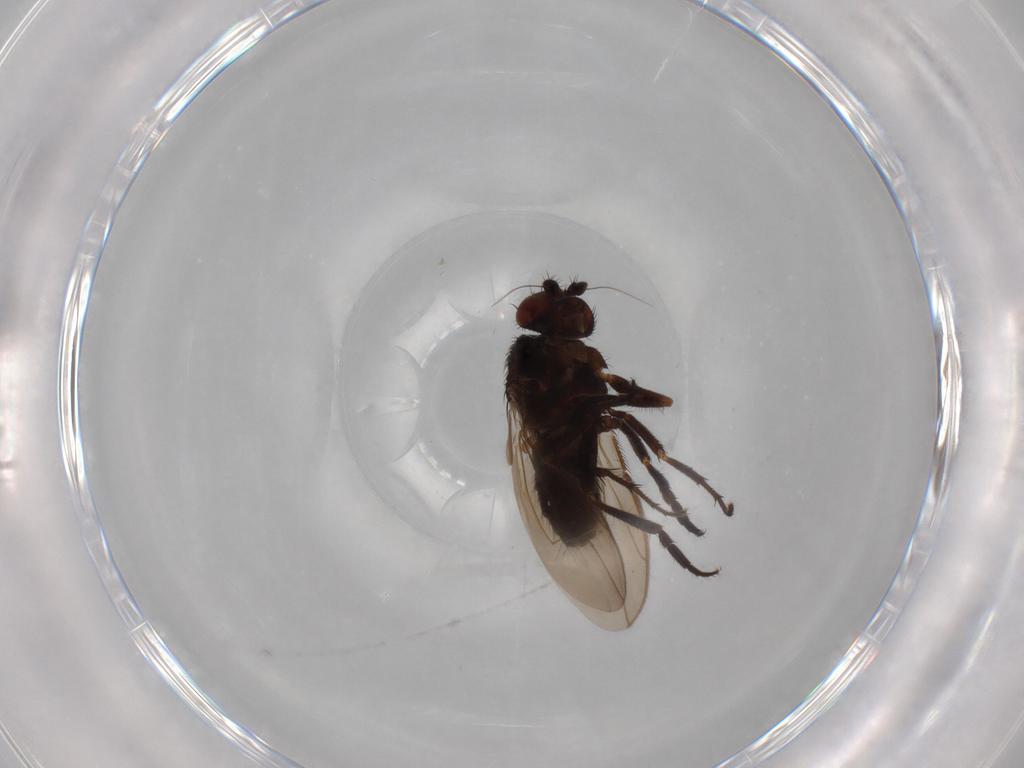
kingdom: Animalia
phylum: Arthropoda
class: Insecta
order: Diptera
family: Sphaeroceridae
